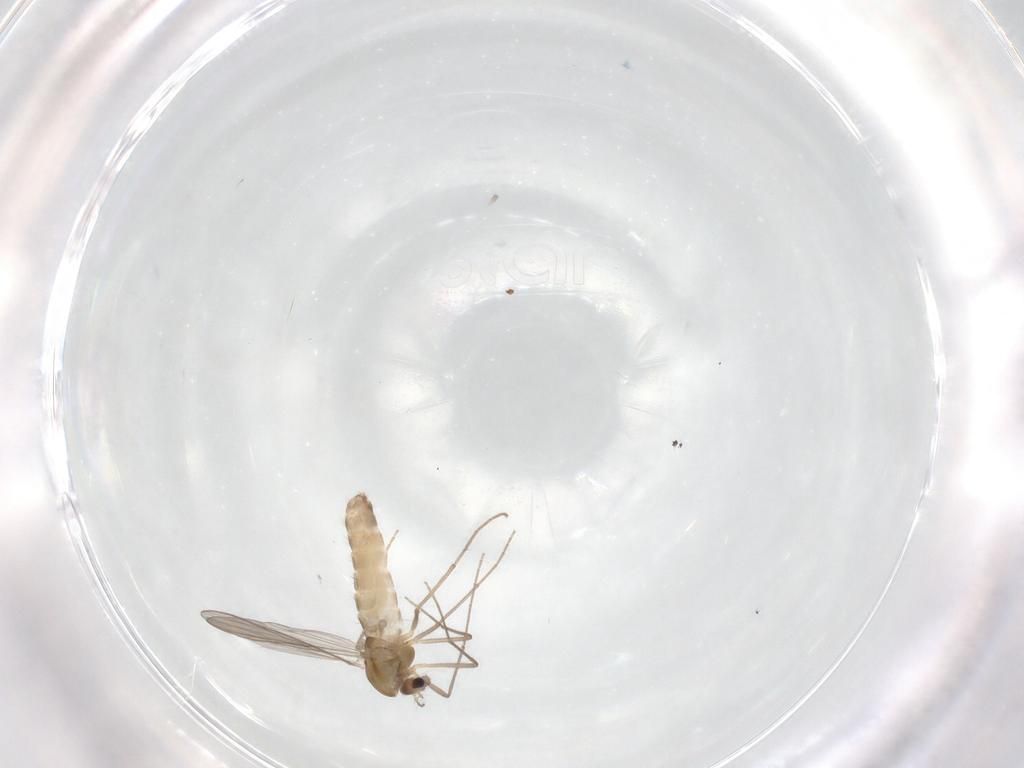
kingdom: Animalia
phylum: Arthropoda
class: Insecta
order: Diptera
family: Chironomidae
